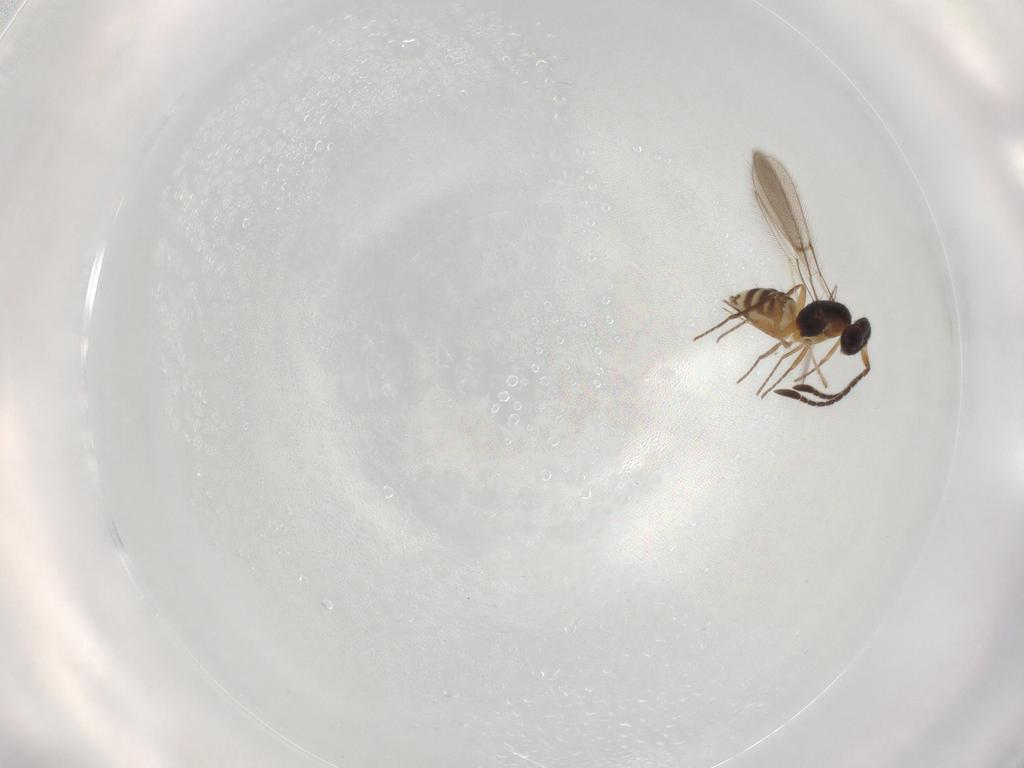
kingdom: Animalia
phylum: Arthropoda
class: Insecta
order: Hymenoptera
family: Mymaridae
